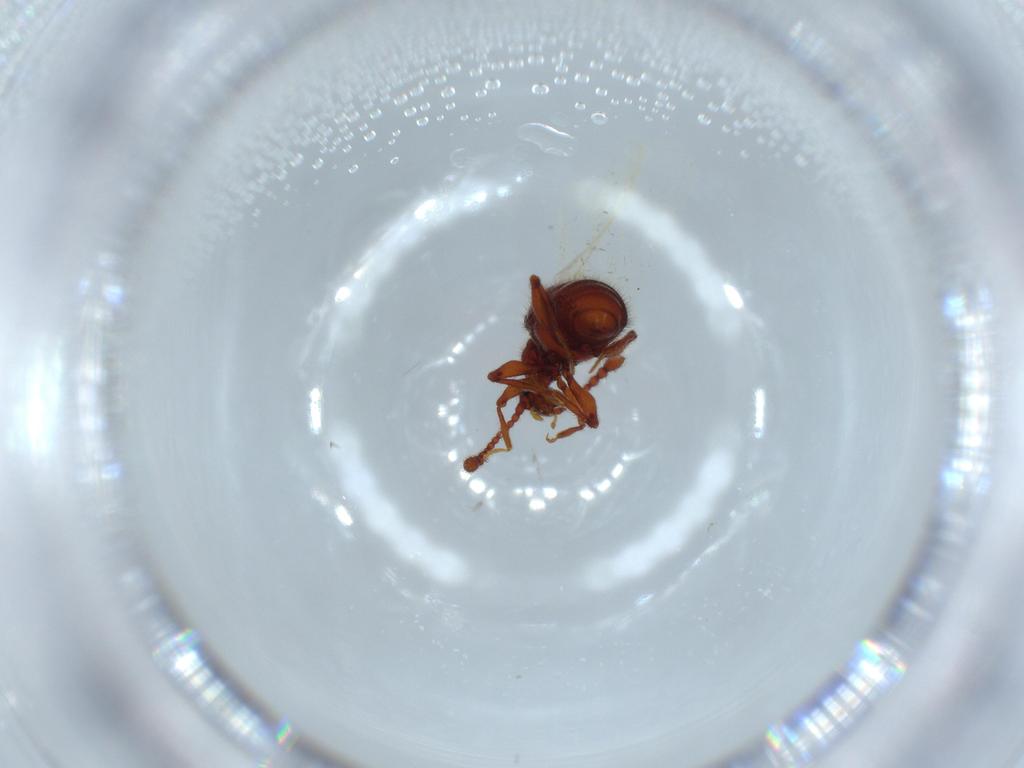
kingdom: Animalia
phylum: Arthropoda
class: Insecta
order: Coleoptera
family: Staphylinidae
